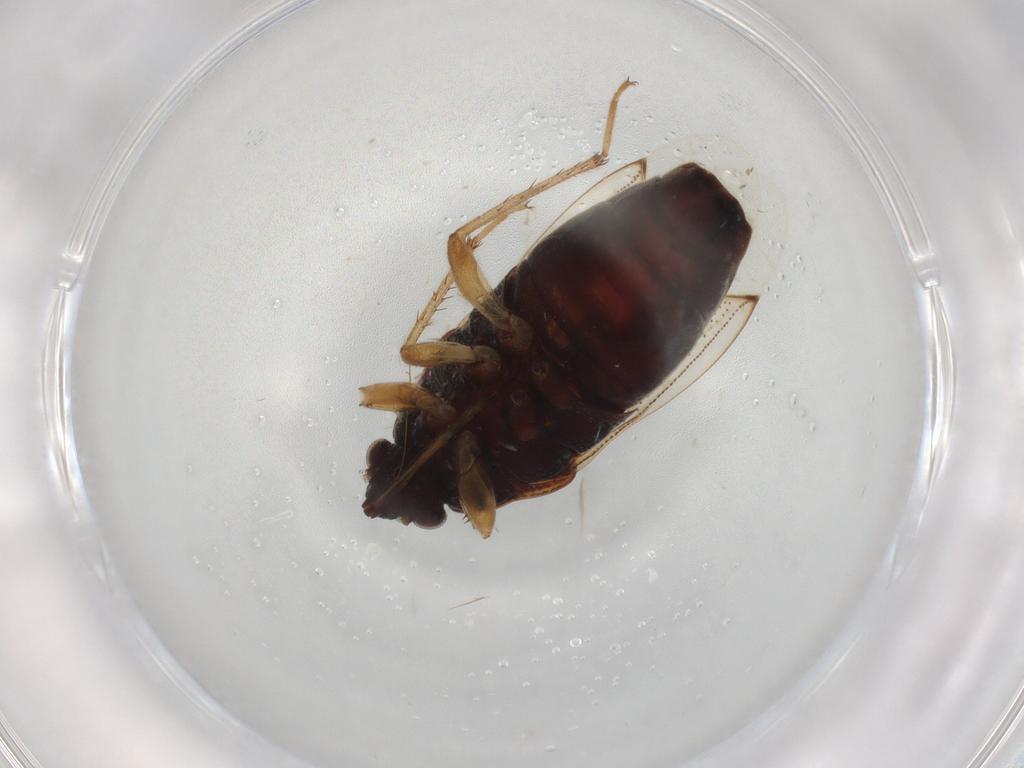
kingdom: Animalia
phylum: Arthropoda
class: Insecta
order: Hemiptera
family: Rhyparochromidae
